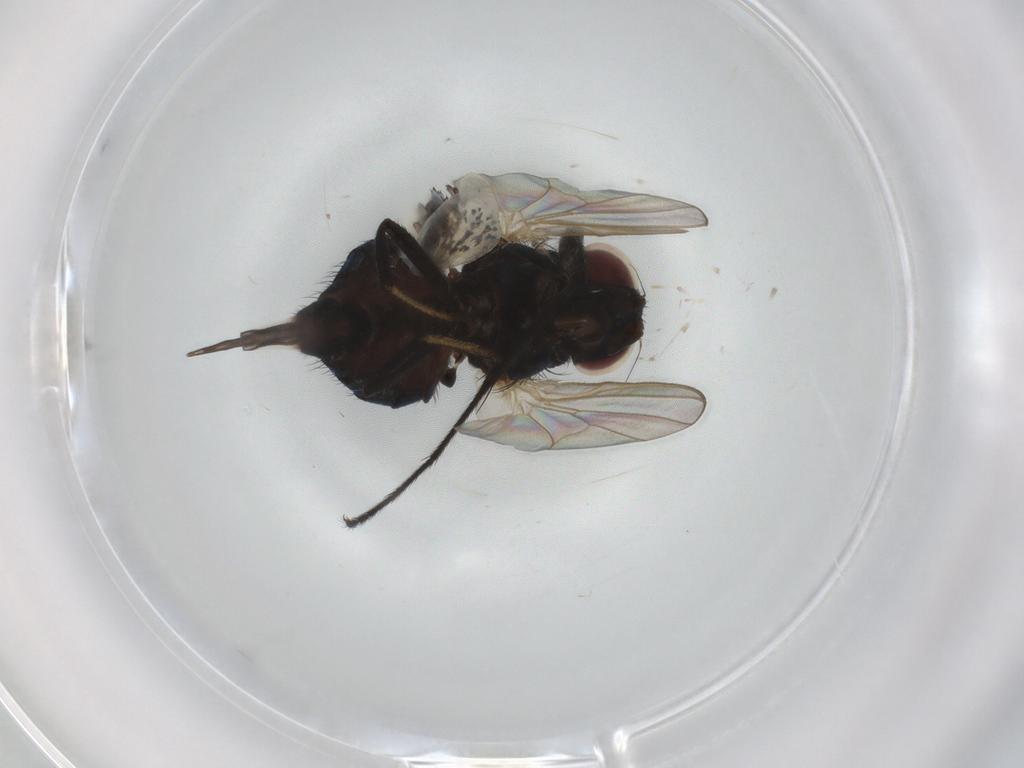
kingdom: Animalia
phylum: Arthropoda
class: Insecta
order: Diptera
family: Tachinidae
